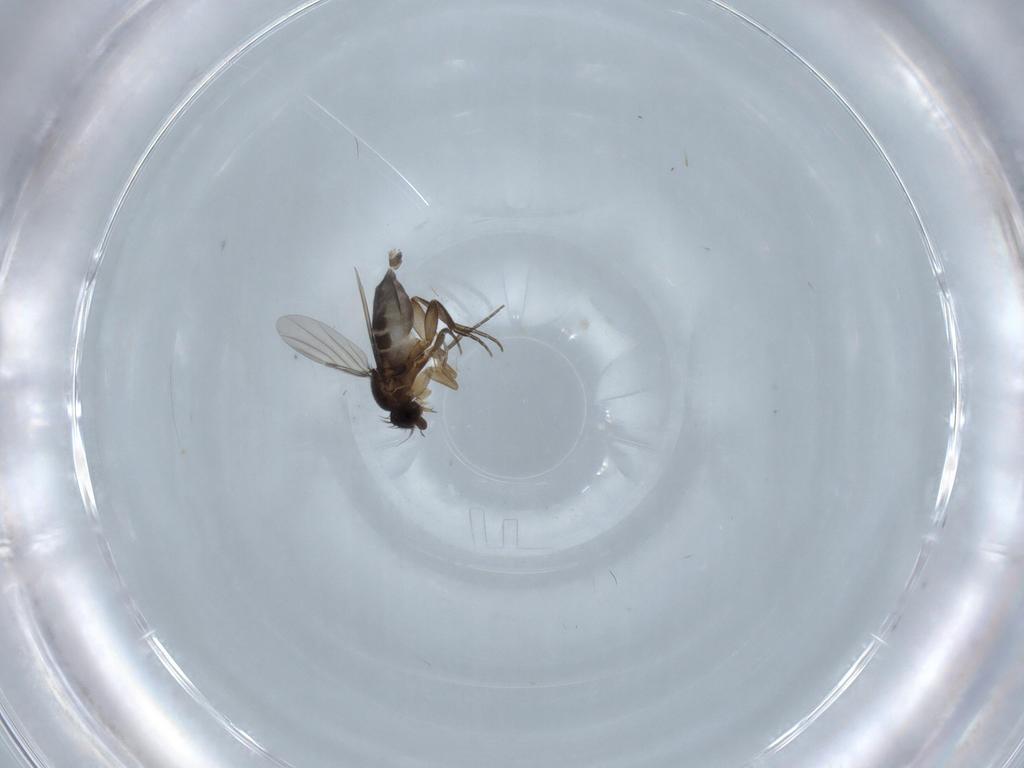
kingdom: Animalia
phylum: Arthropoda
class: Insecta
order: Diptera
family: Phoridae
